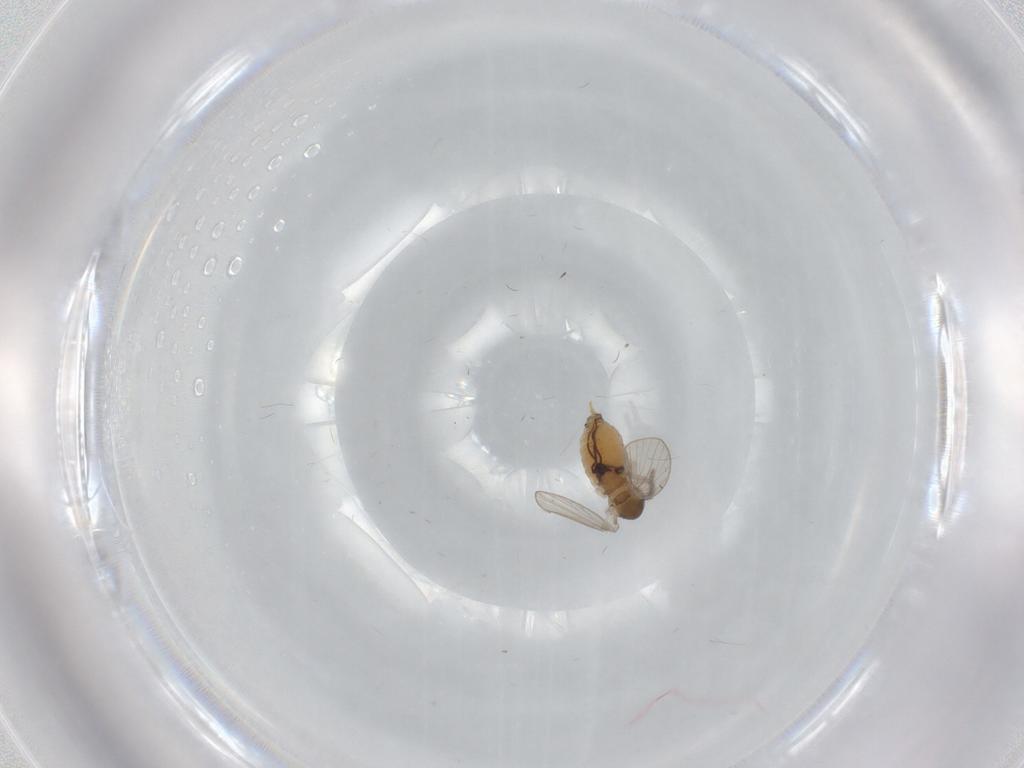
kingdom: Animalia
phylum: Arthropoda
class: Insecta
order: Diptera
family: Psychodidae
